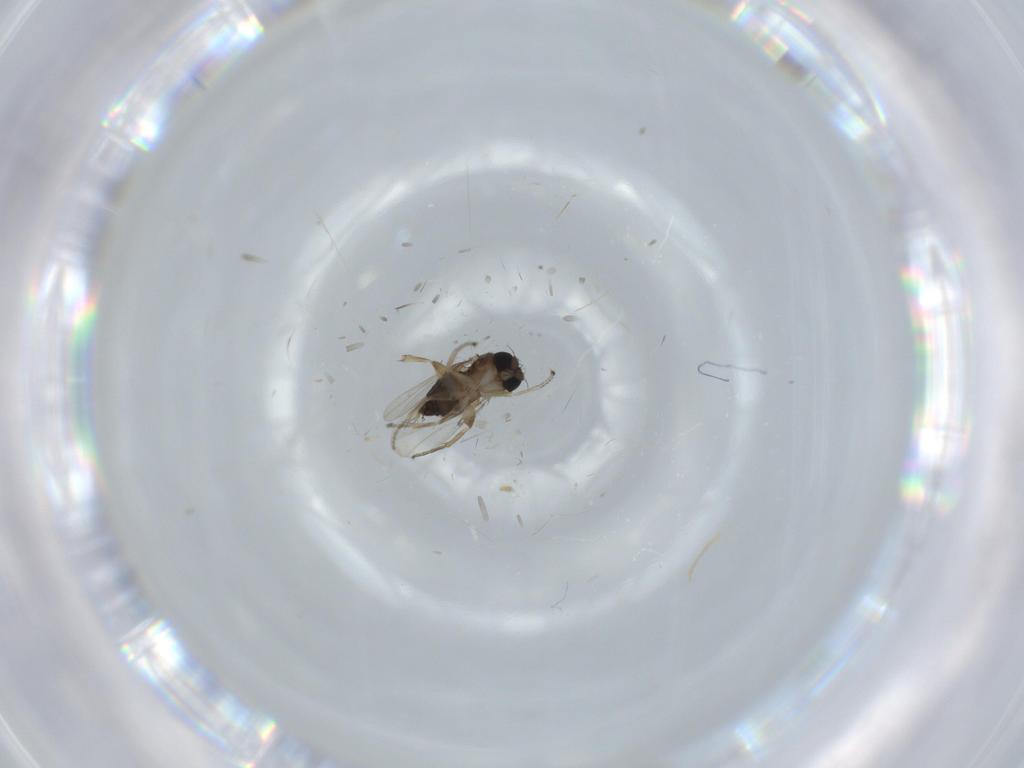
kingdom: Animalia
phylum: Arthropoda
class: Insecta
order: Diptera
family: Phoridae
